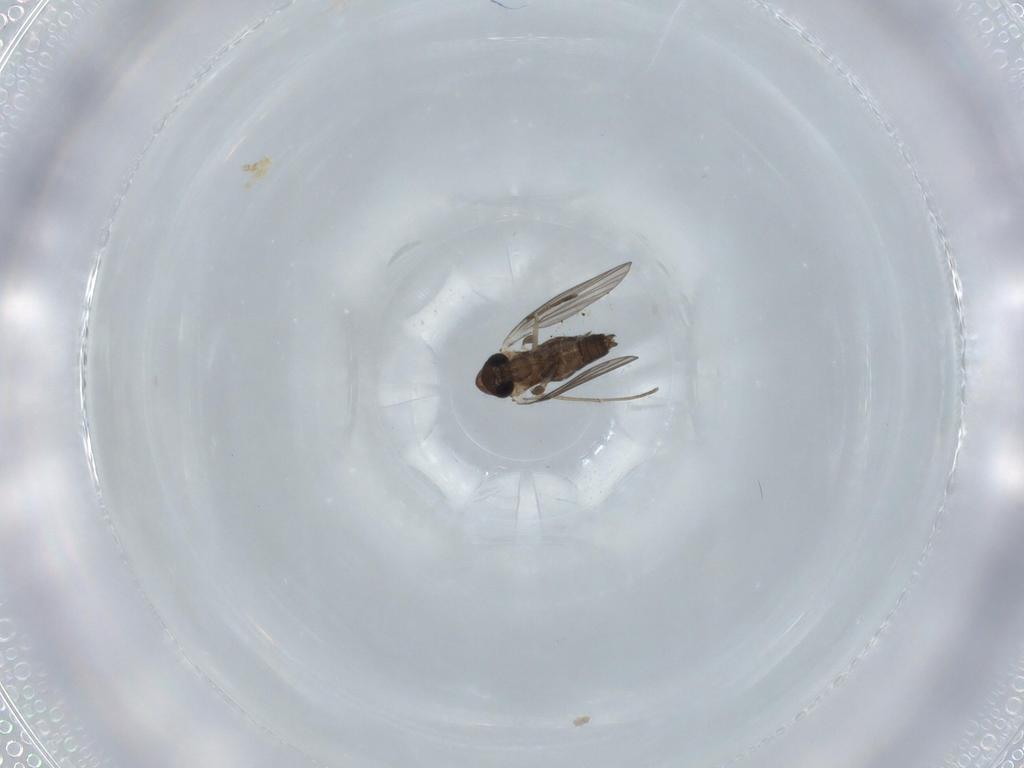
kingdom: Animalia
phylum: Arthropoda
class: Insecta
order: Diptera
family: Phoridae
